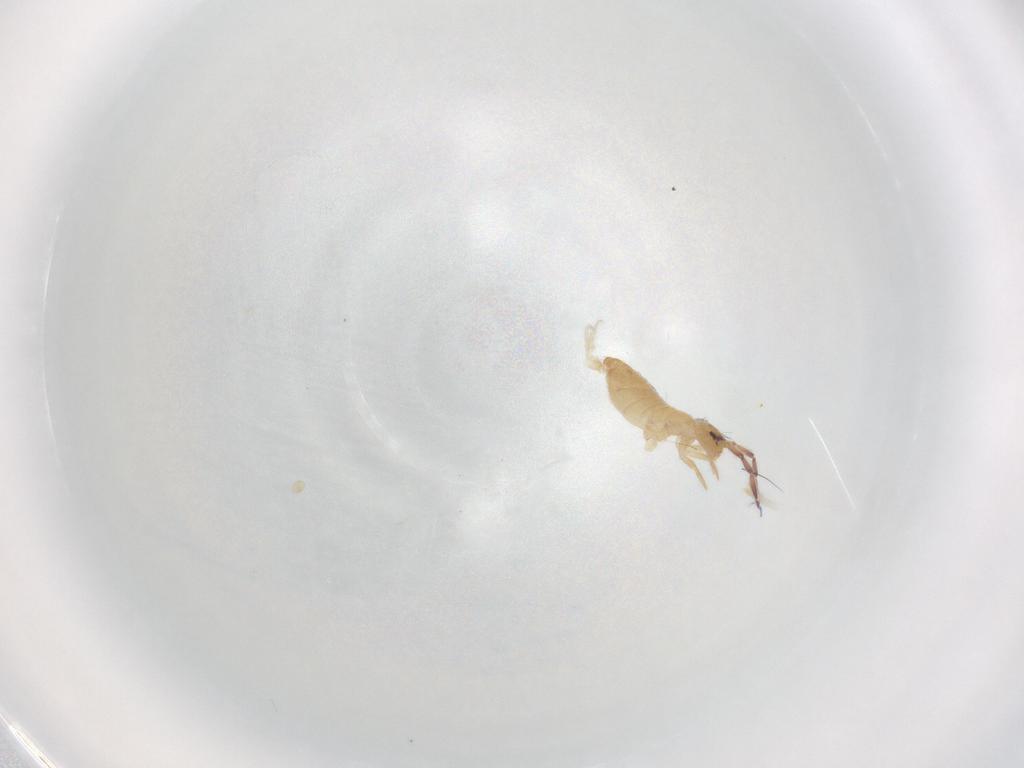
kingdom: Animalia
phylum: Arthropoda
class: Collembola
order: Entomobryomorpha
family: Entomobryidae
